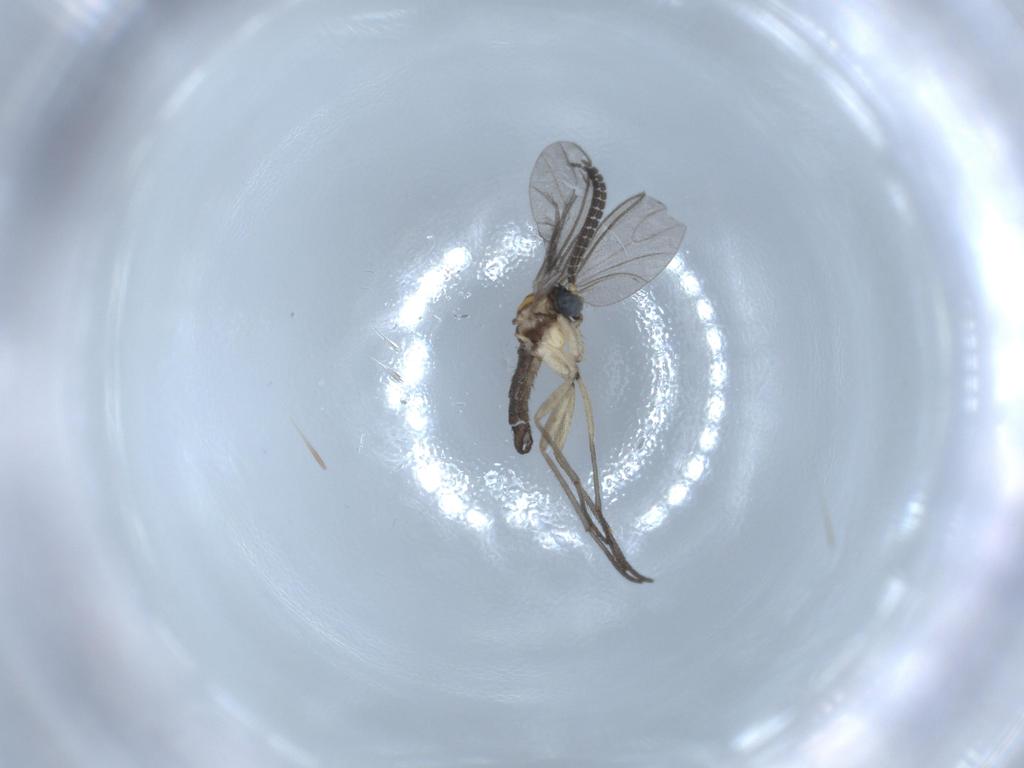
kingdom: Animalia
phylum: Arthropoda
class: Insecta
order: Diptera
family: Sciaridae
